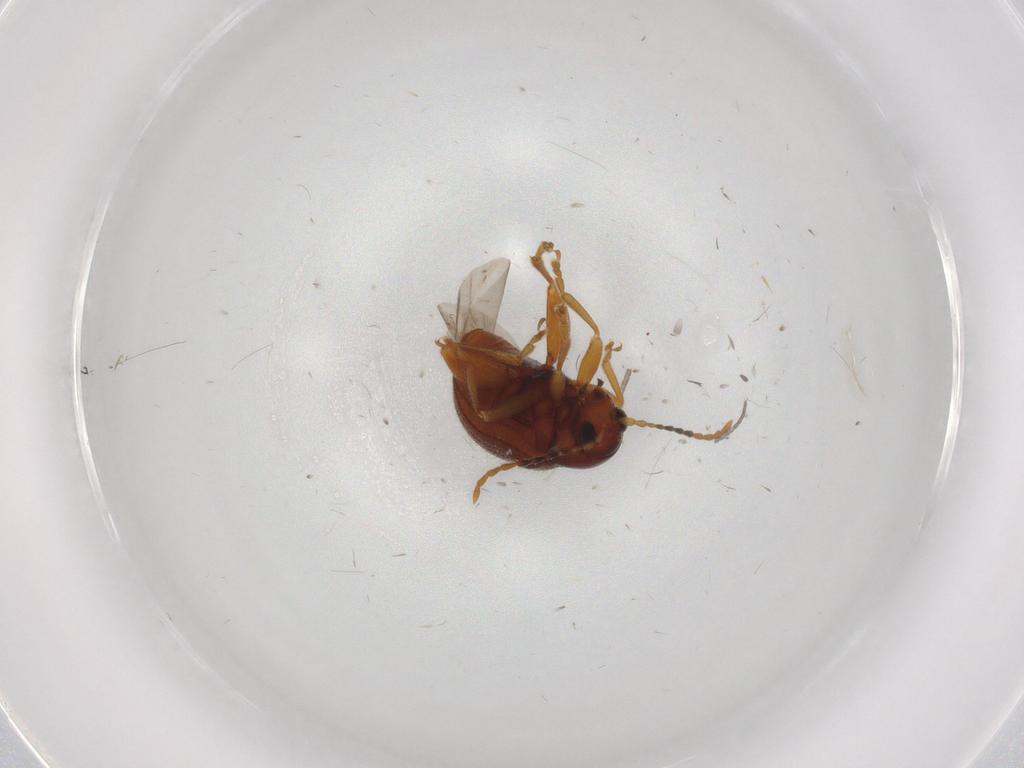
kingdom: Animalia
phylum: Arthropoda
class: Insecta
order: Coleoptera
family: Chrysomelidae
